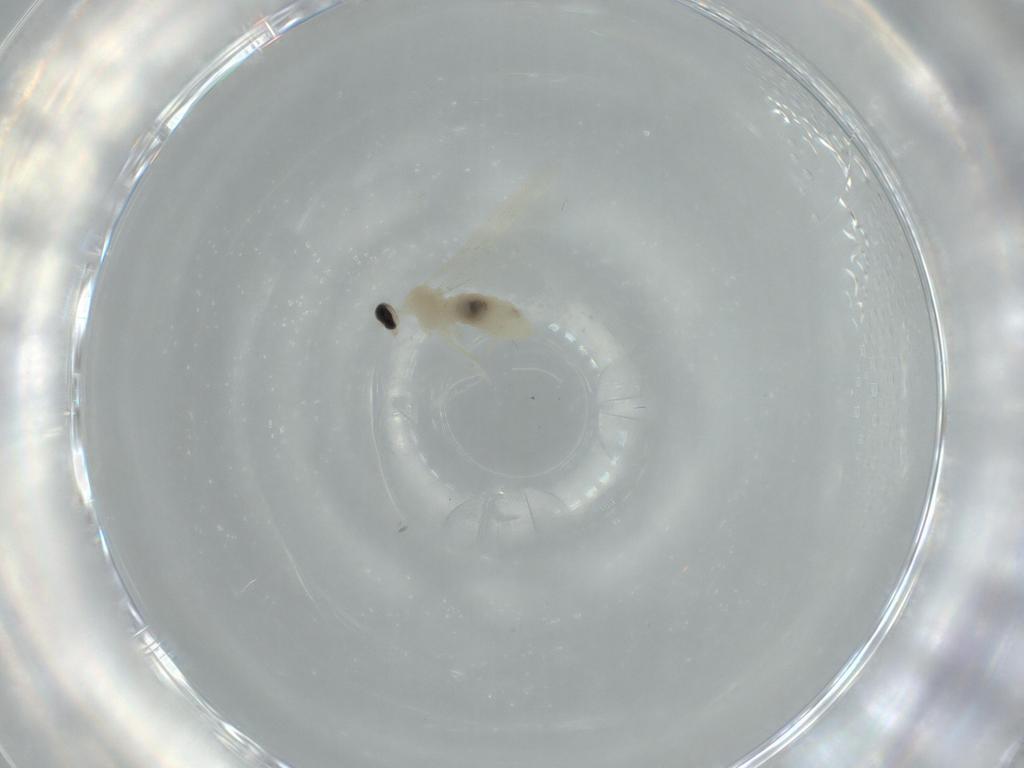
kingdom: Animalia
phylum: Arthropoda
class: Insecta
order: Diptera
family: Cecidomyiidae
